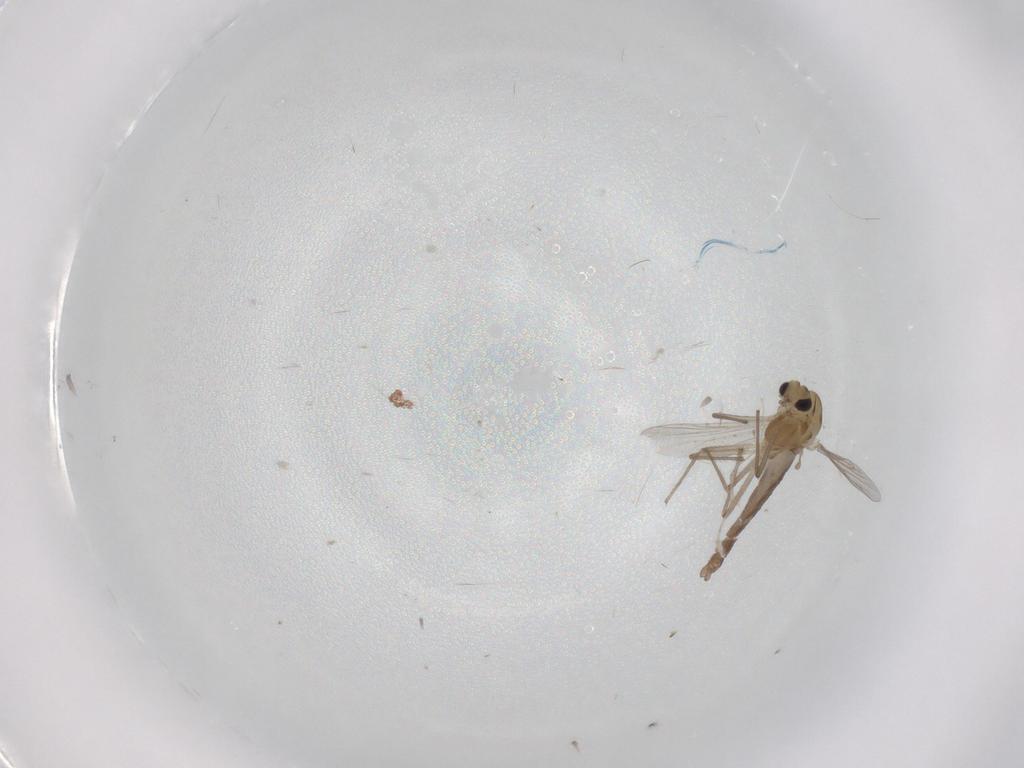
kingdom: Animalia
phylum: Arthropoda
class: Insecta
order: Diptera
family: Chironomidae
